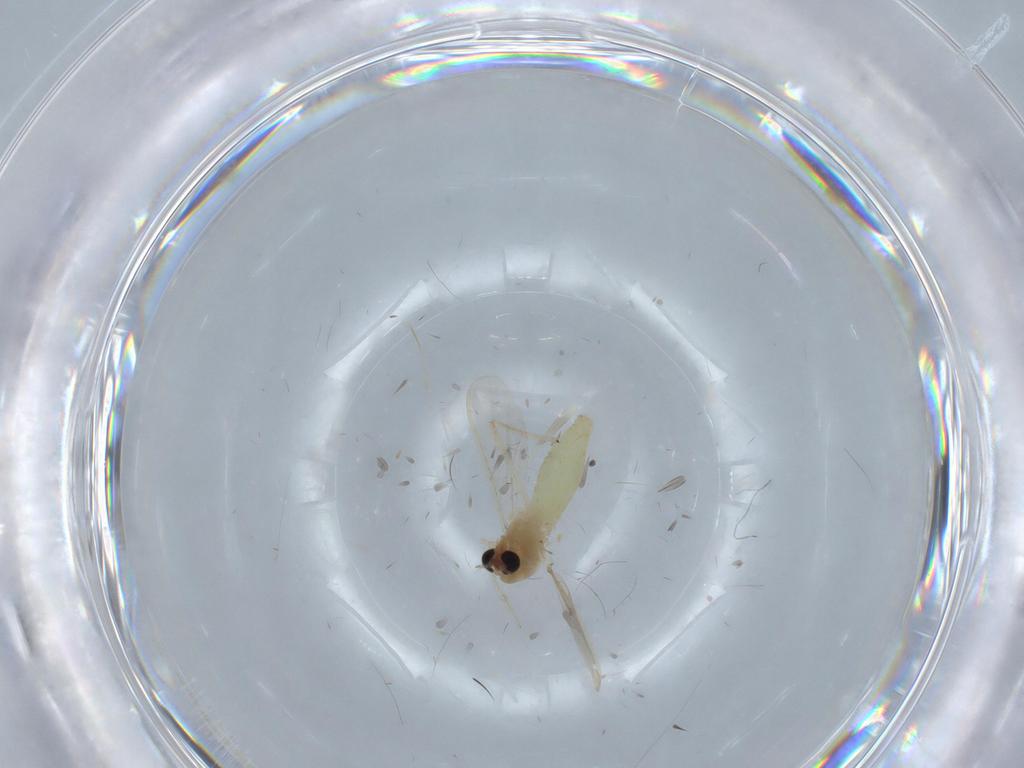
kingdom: Animalia
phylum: Arthropoda
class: Insecta
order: Diptera
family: Chironomidae
